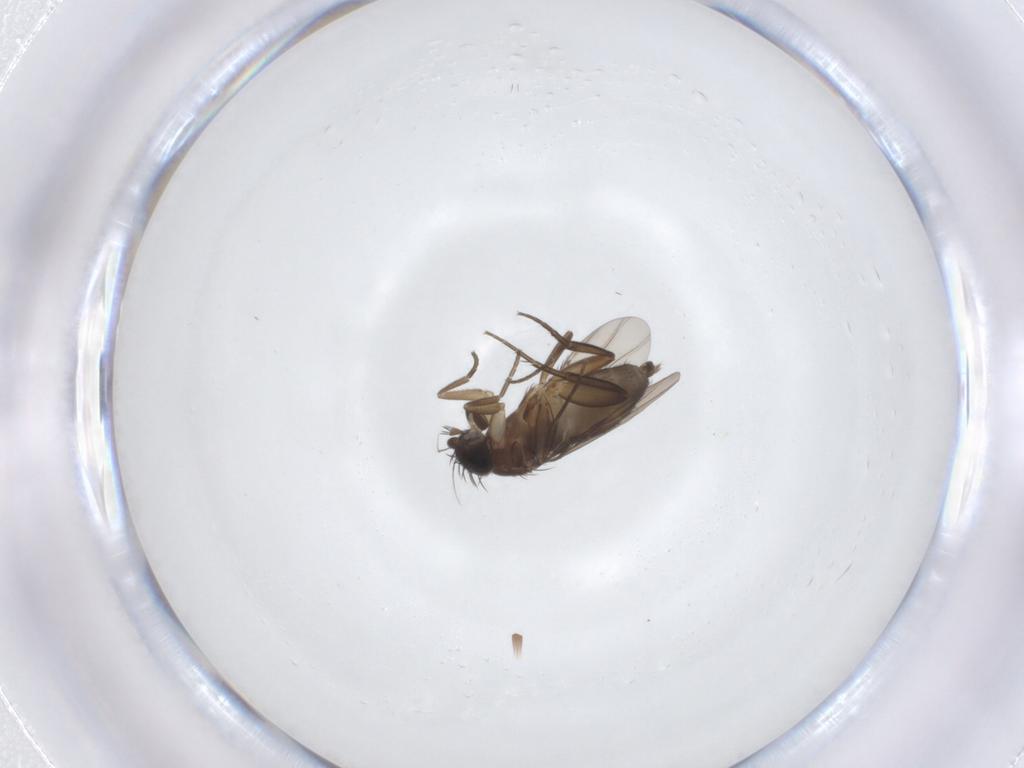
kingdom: Animalia
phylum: Arthropoda
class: Insecta
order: Diptera
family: Phoridae
